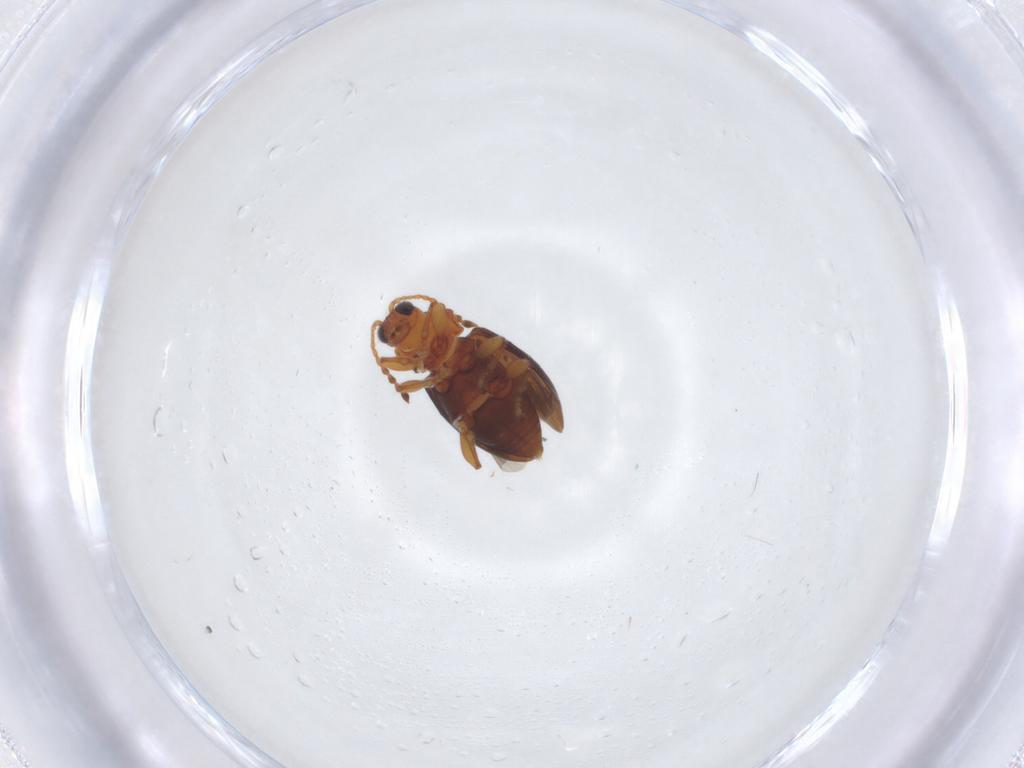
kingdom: Animalia
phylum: Arthropoda
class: Insecta
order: Coleoptera
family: Chrysomelidae
